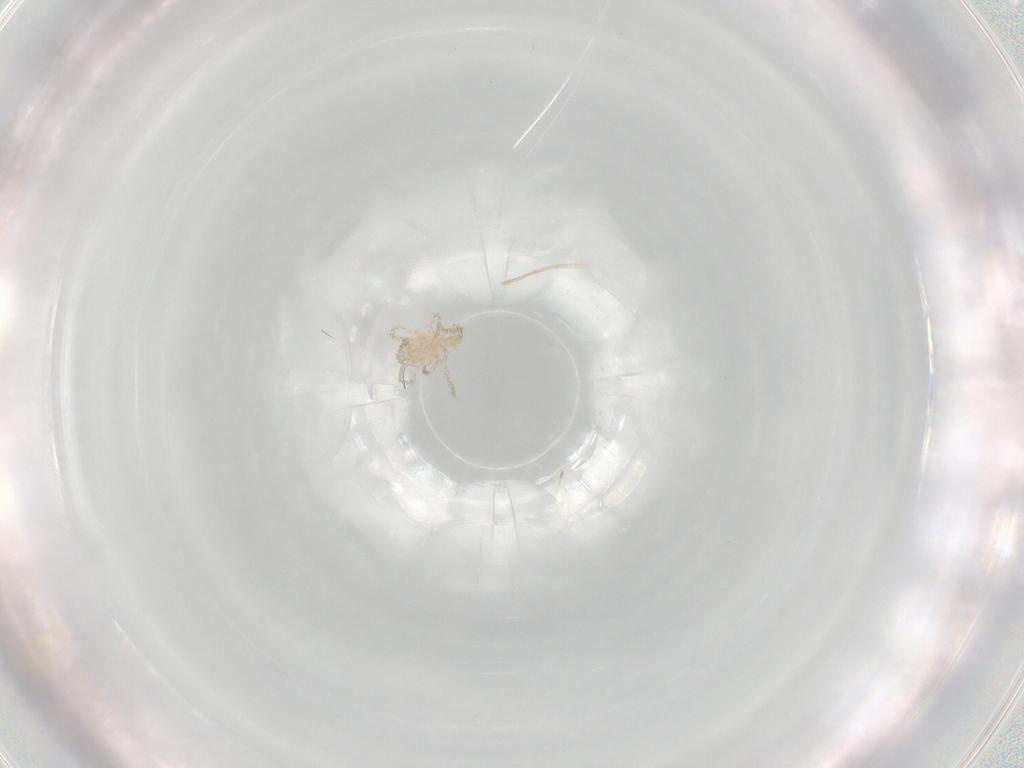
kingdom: Animalia
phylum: Arthropoda
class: Arachnida
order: Trombidiformes
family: Erythraeidae
